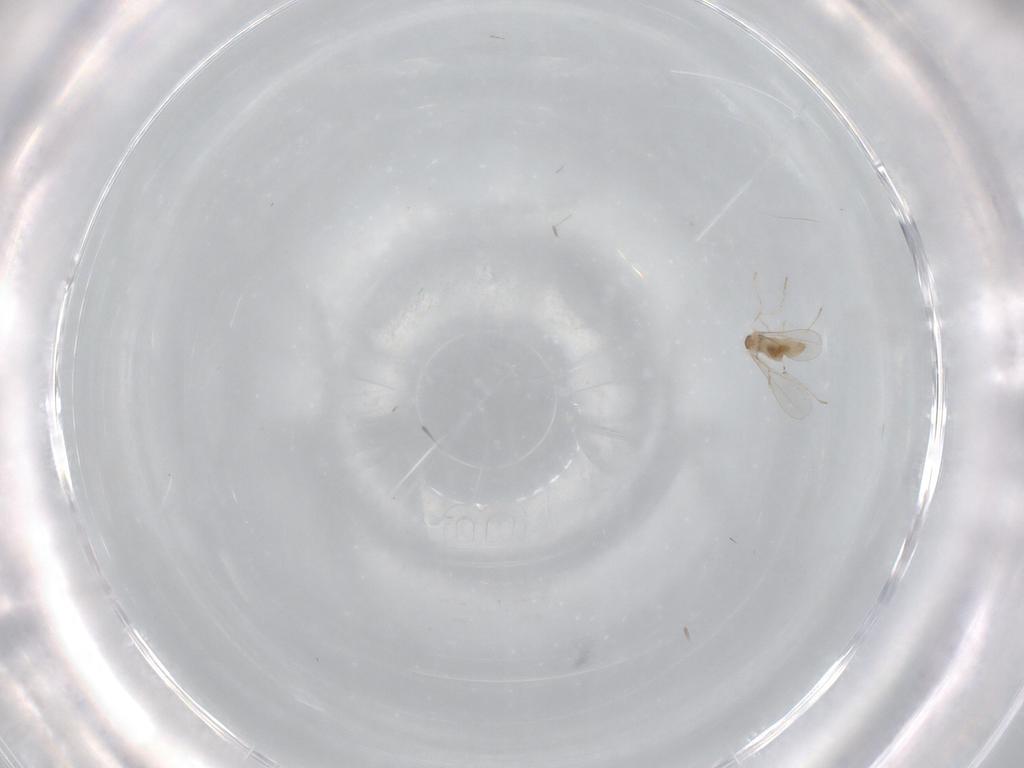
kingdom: Animalia
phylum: Arthropoda
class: Insecta
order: Diptera
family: Cecidomyiidae
